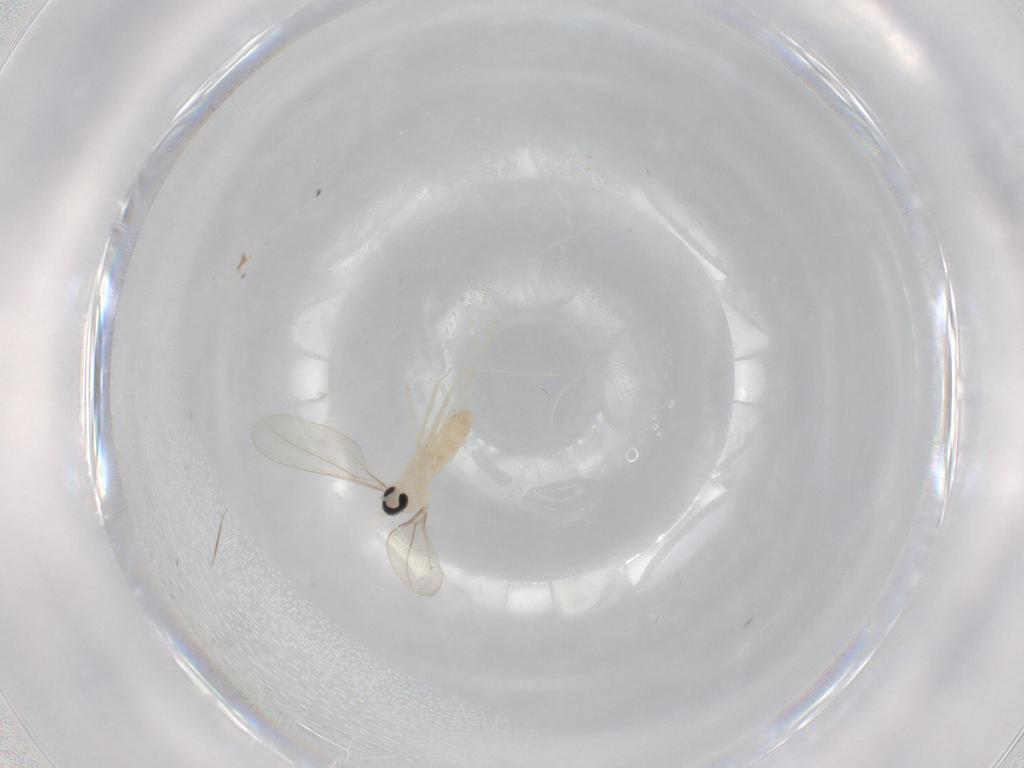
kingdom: Animalia
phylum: Arthropoda
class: Insecta
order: Diptera
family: Cecidomyiidae
